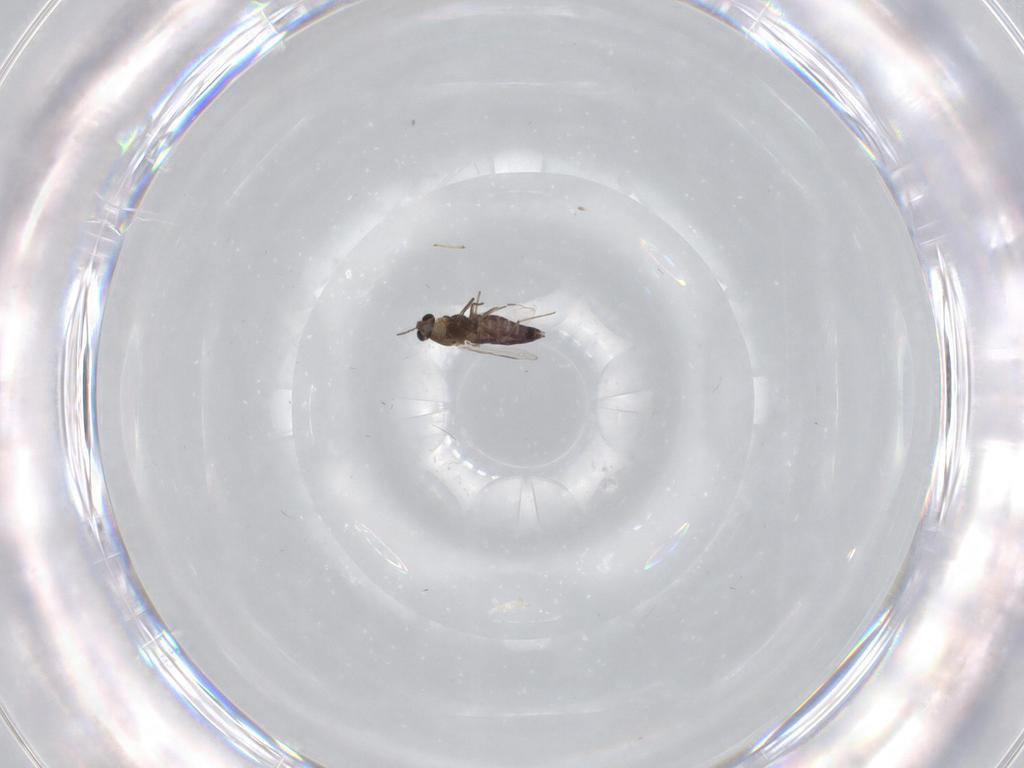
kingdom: Animalia
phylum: Arthropoda
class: Insecta
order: Diptera
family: Chironomidae
